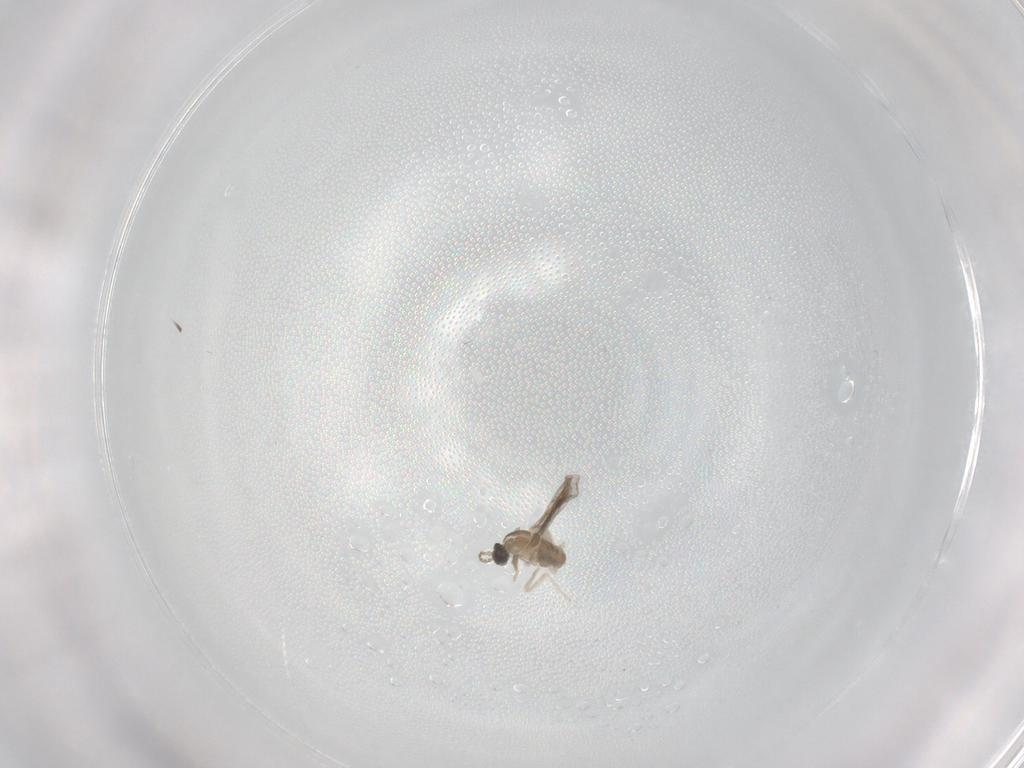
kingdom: Animalia
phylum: Arthropoda
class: Insecta
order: Diptera
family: Cecidomyiidae
